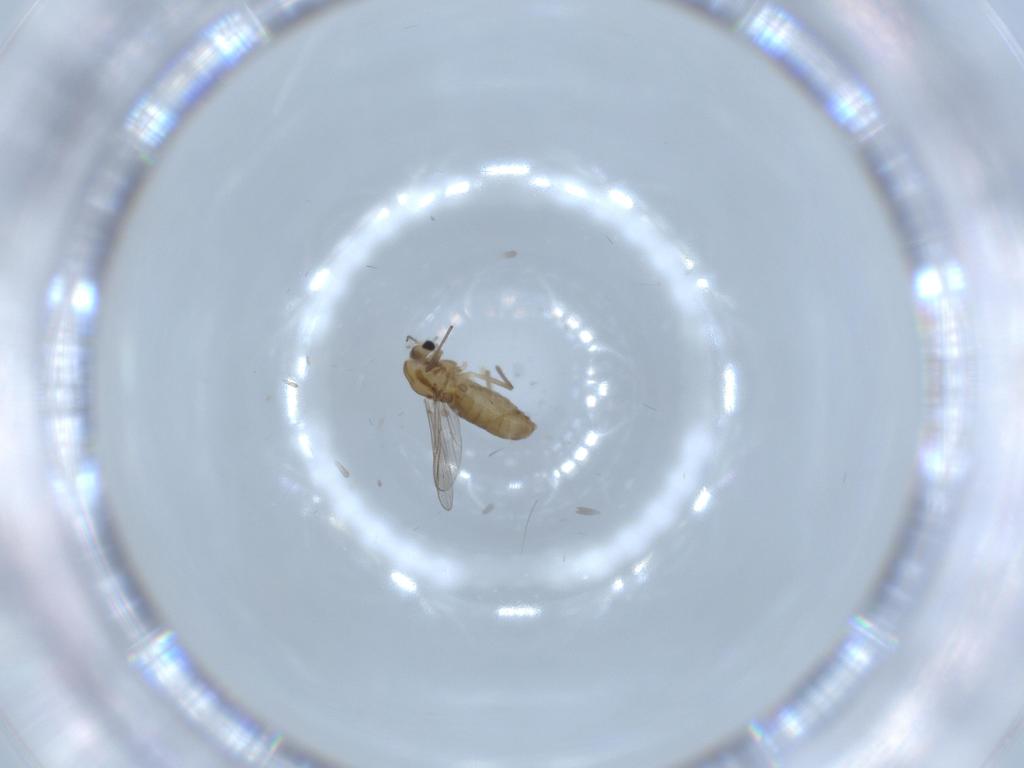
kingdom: Animalia
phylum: Arthropoda
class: Insecta
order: Diptera
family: Chironomidae
